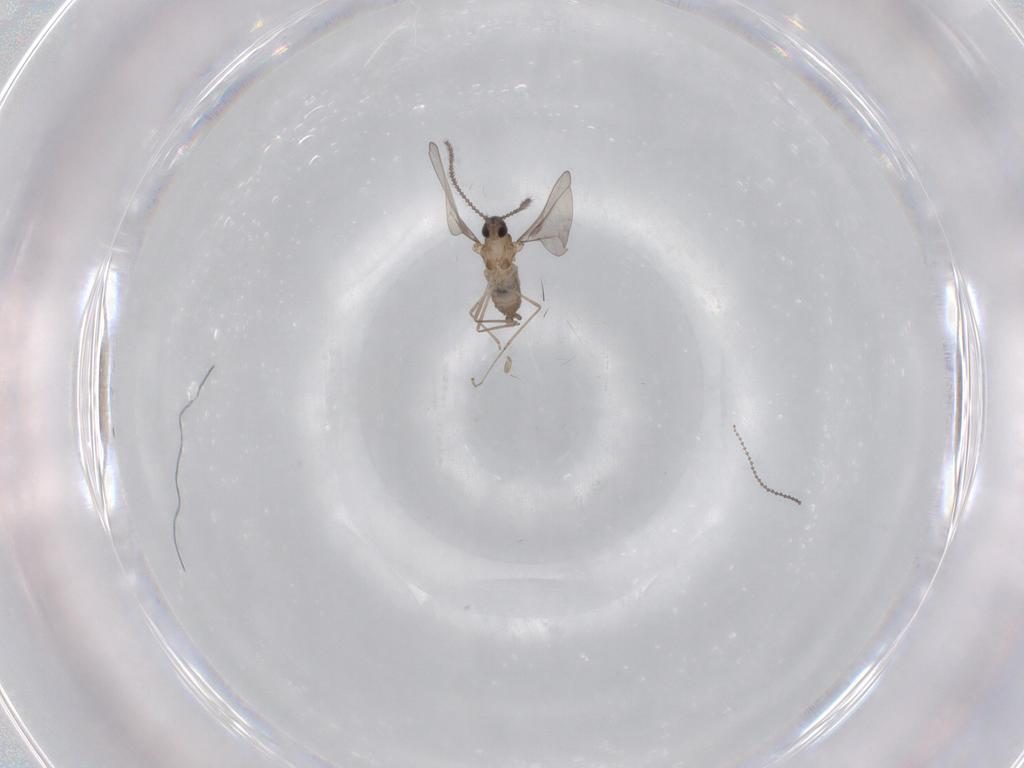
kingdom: Animalia
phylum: Arthropoda
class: Insecta
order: Diptera
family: Cecidomyiidae
